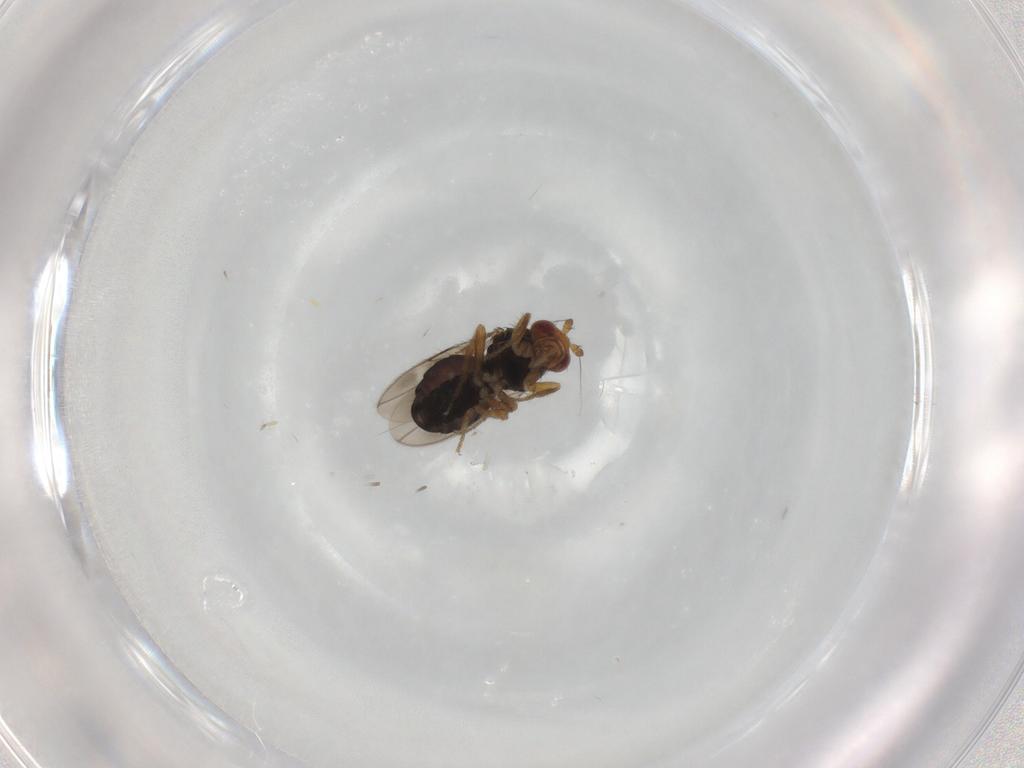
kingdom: Animalia
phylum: Arthropoda
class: Insecta
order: Diptera
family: Sphaeroceridae
